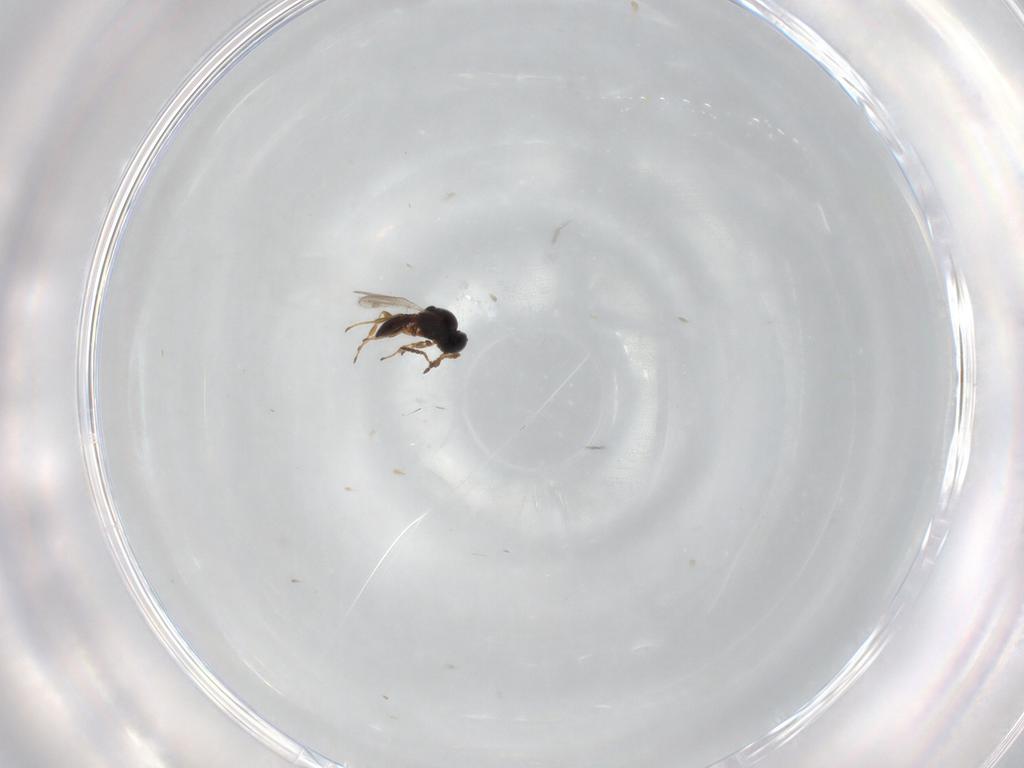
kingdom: Animalia
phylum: Arthropoda
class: Insecta
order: Hymenoptera
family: Platygastridae
